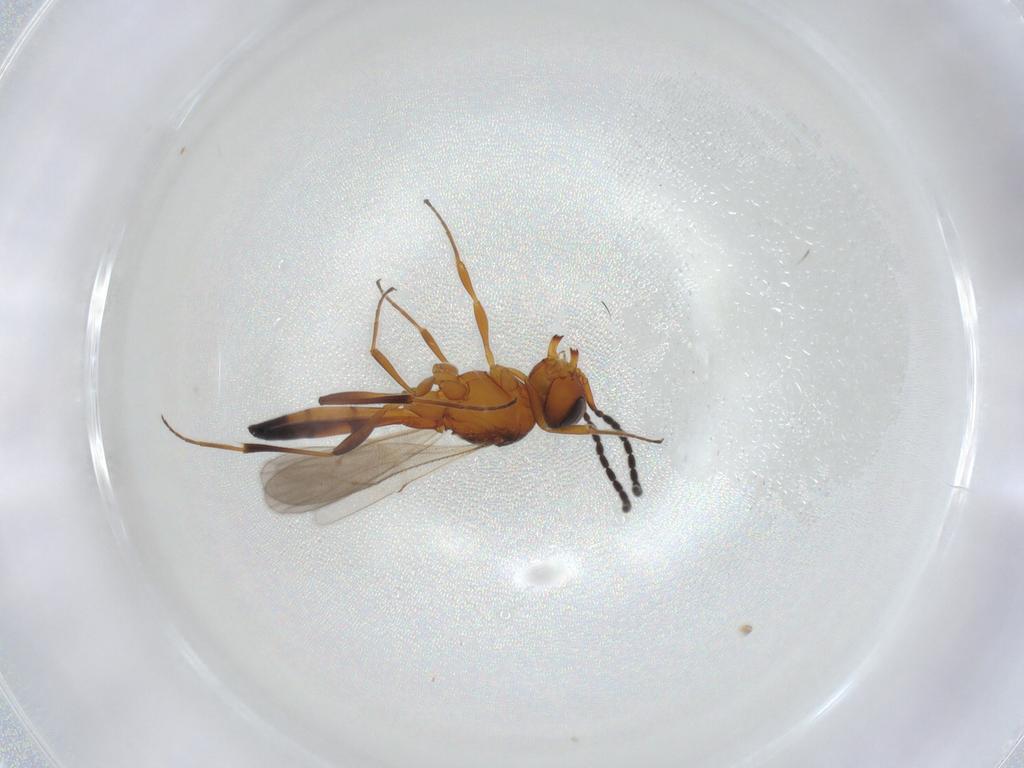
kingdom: Animalia
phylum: Arthropoda
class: Insecta
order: Hymenoptera
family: Scelionidae
